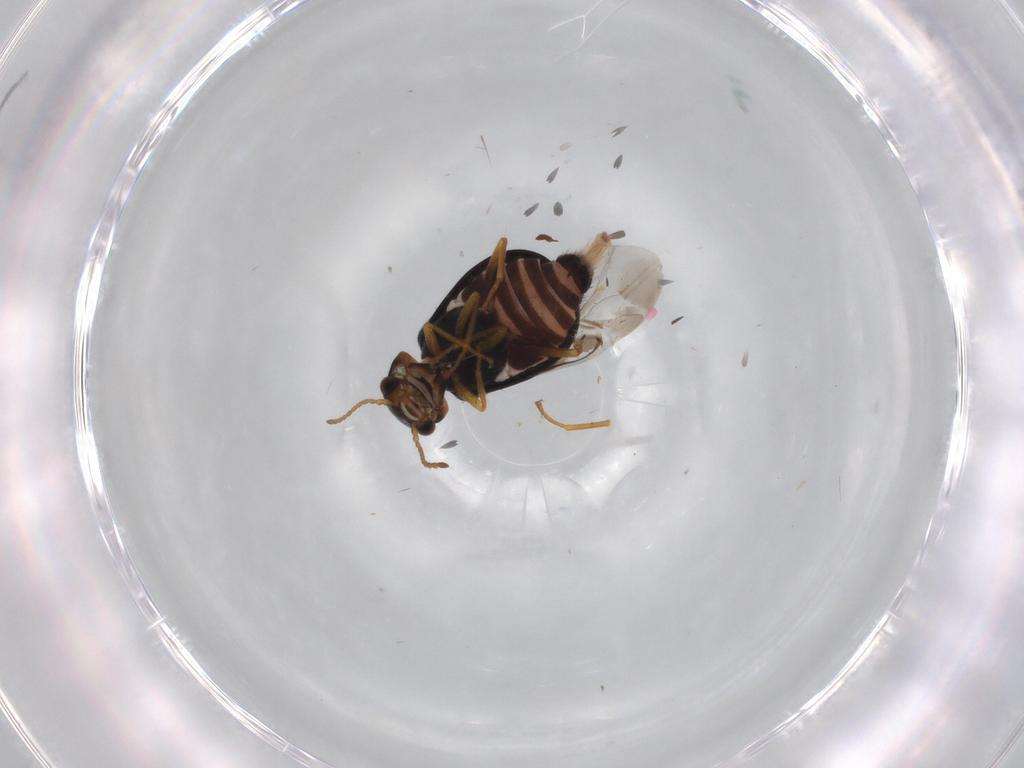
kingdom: Animalia
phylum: Arthropoda
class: Insecta
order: Coleoptera
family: Melyridae
